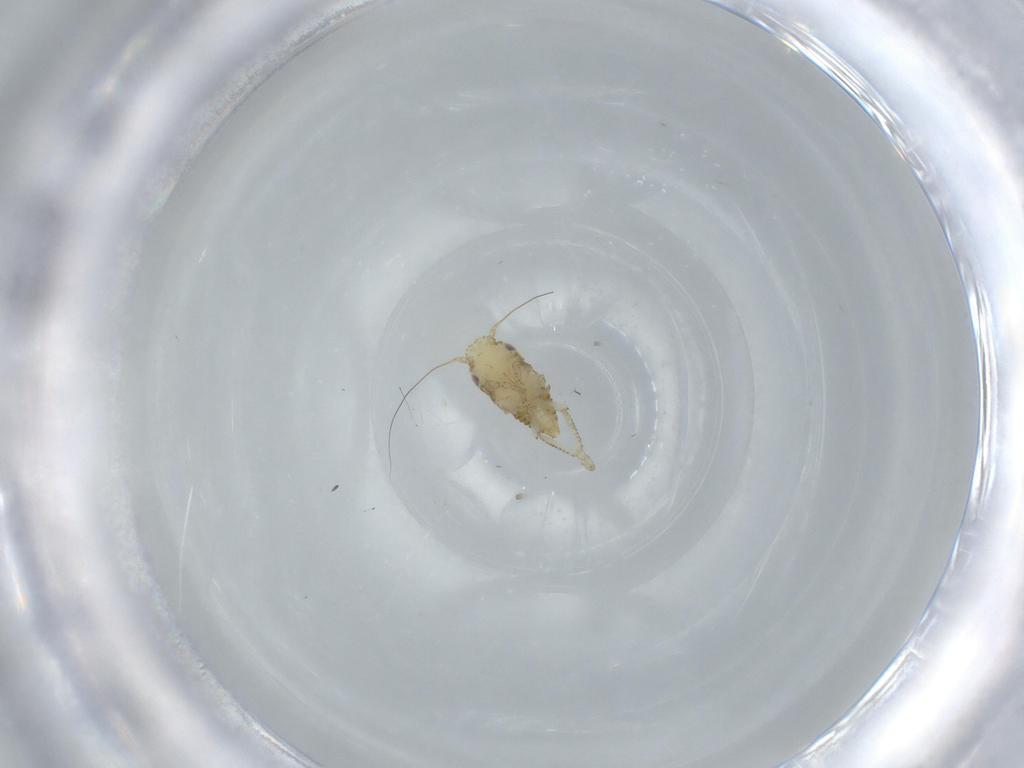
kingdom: Animalia
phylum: Arthropoda
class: Insecta
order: Hemiptera
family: Cicadellidae
